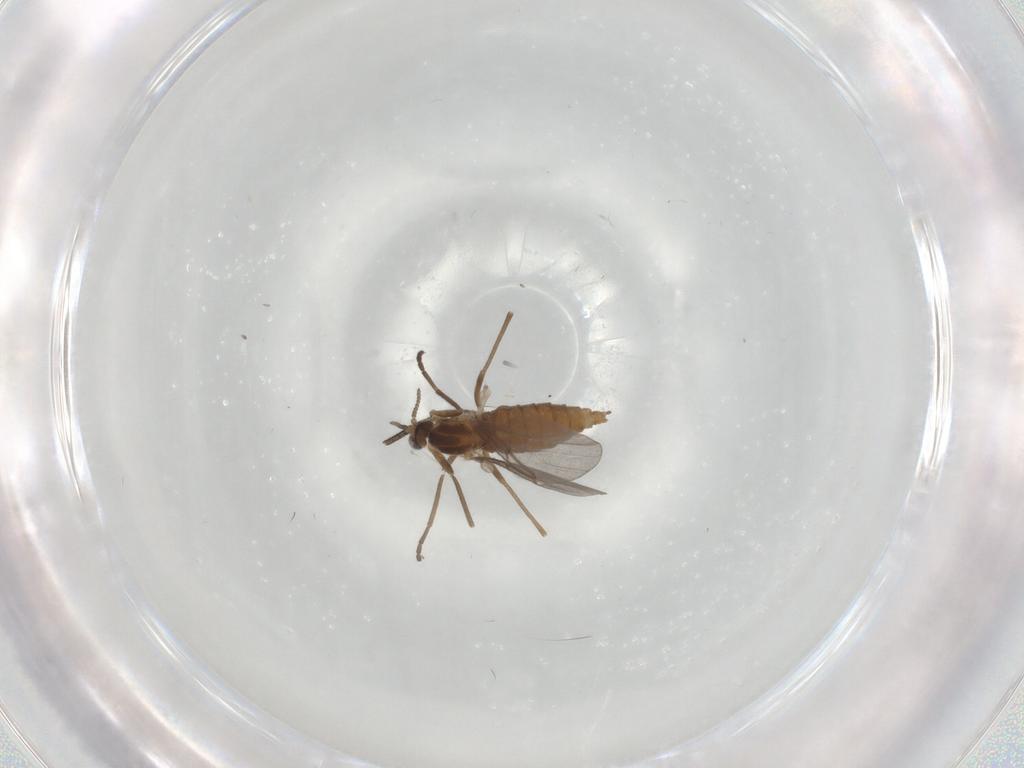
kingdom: Animalia
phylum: Arthropoda
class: Insecta
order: Diptera
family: Cecidomyiidae
